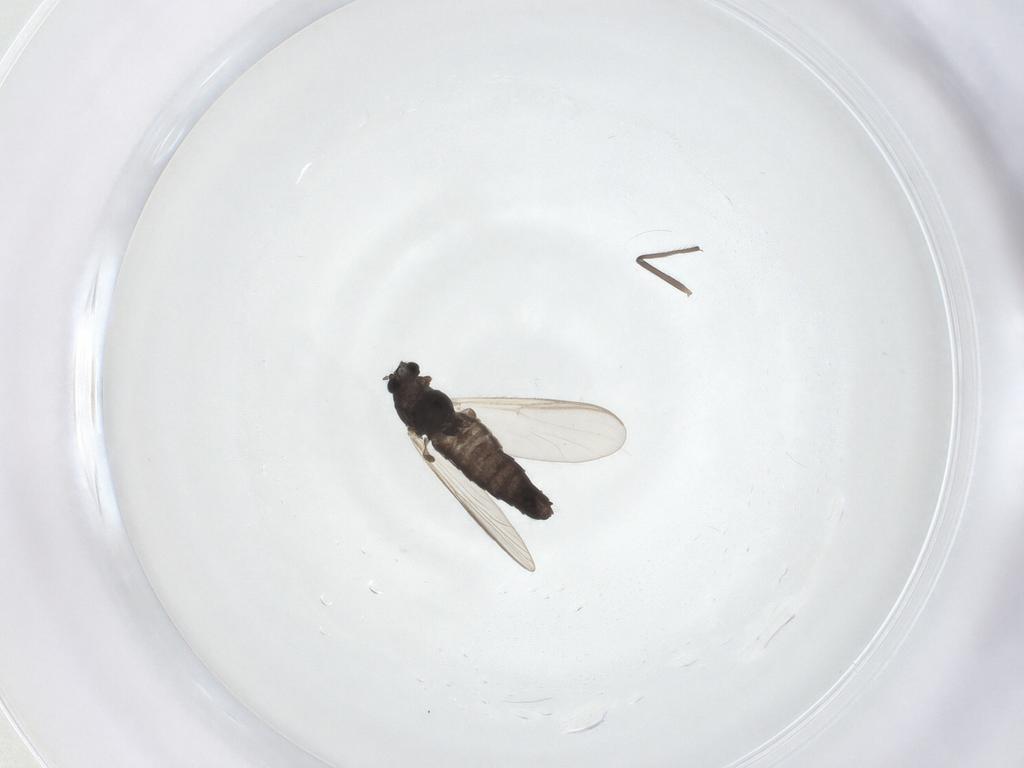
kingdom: Animalia
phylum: Arthropoda
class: Insecta
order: Diptera
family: Chironomidae
